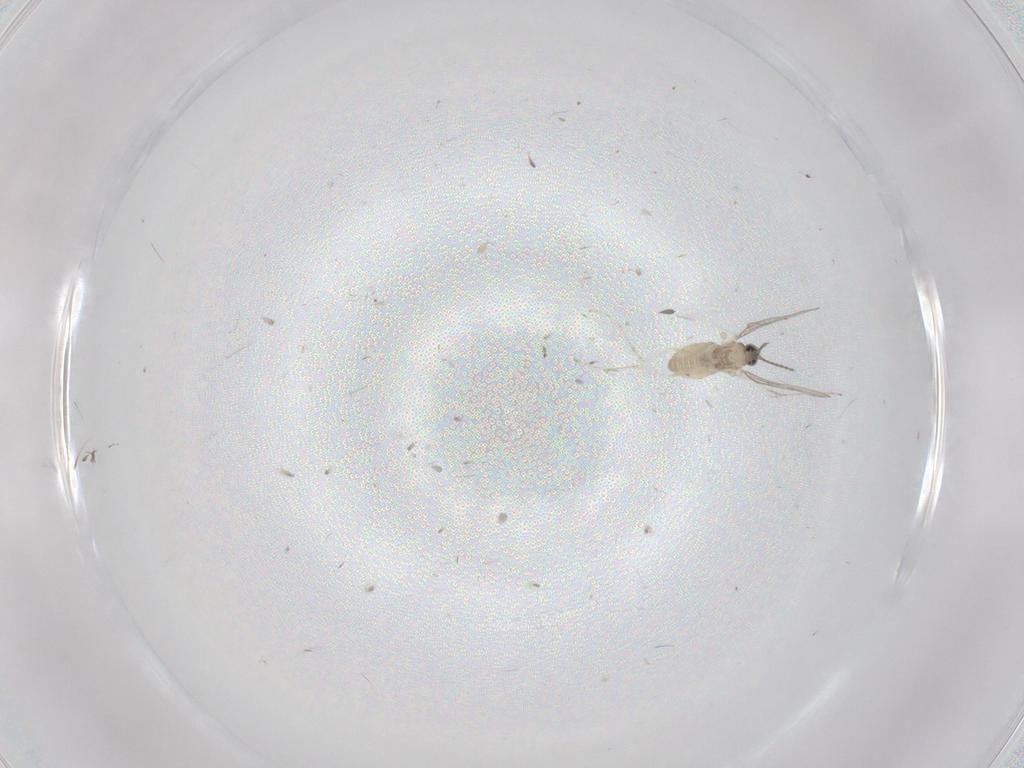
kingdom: Animalia
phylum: Arthropoda
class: Insecta
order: Diptera
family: Cecidomyiidae
